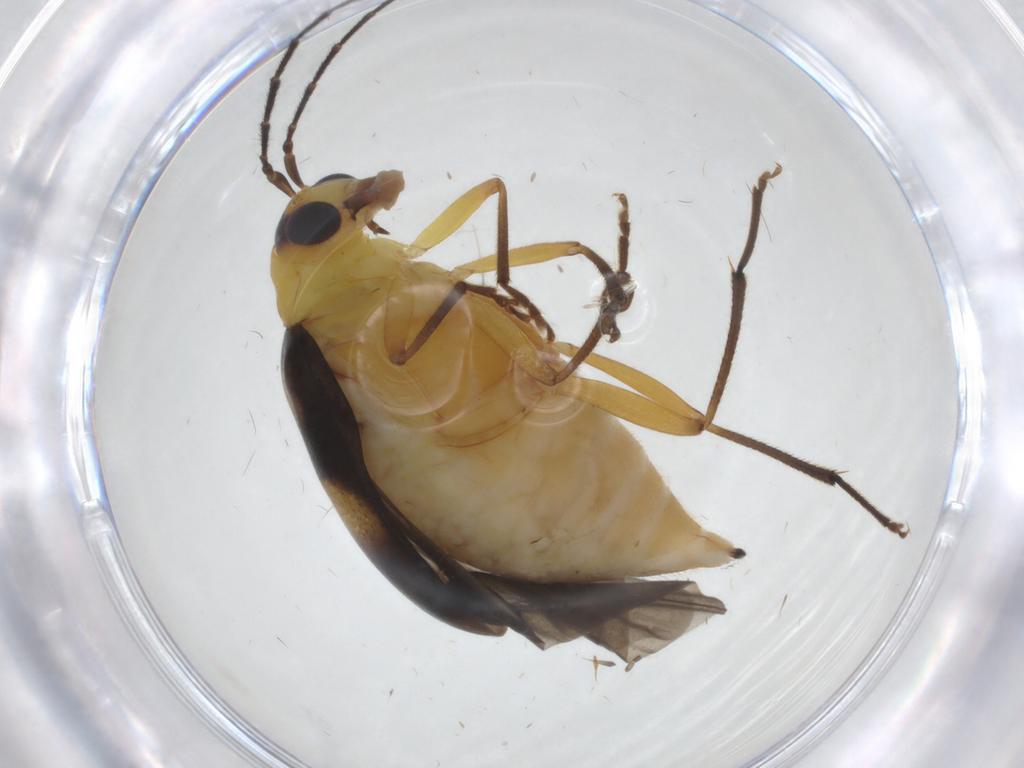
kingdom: Animalia
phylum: Arthropoda
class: Insecta
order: Coleoptera
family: Chrysomelidae
